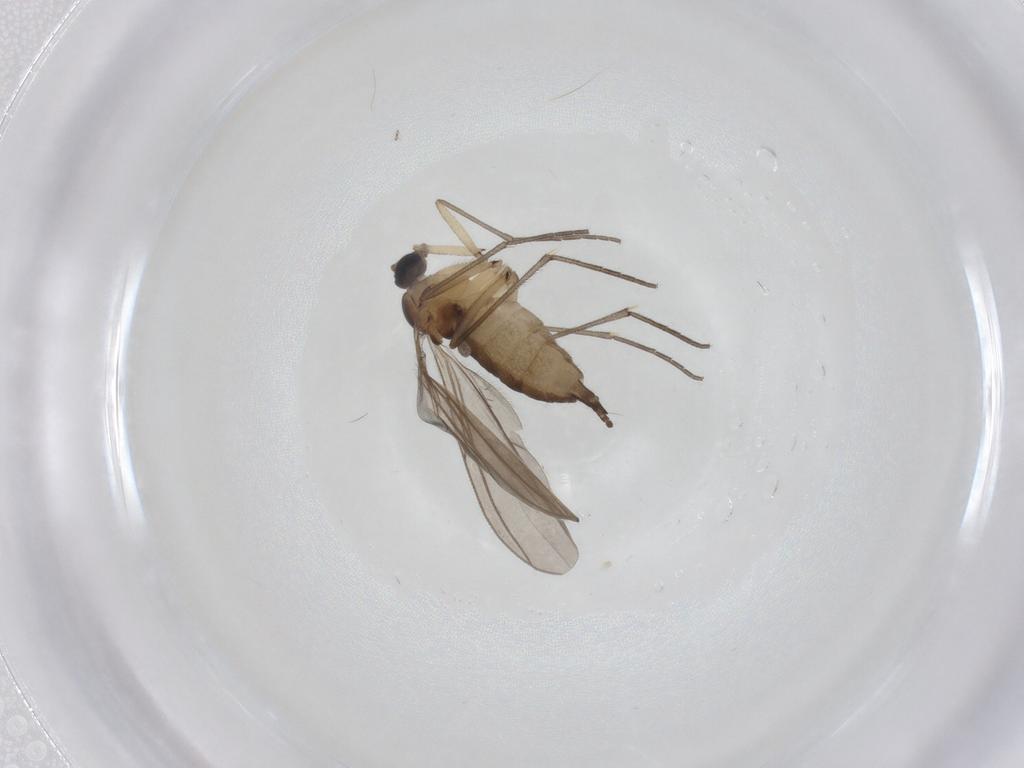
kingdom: Animalia
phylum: Arthropoda
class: Insecta
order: Diptera
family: Sciaridae
